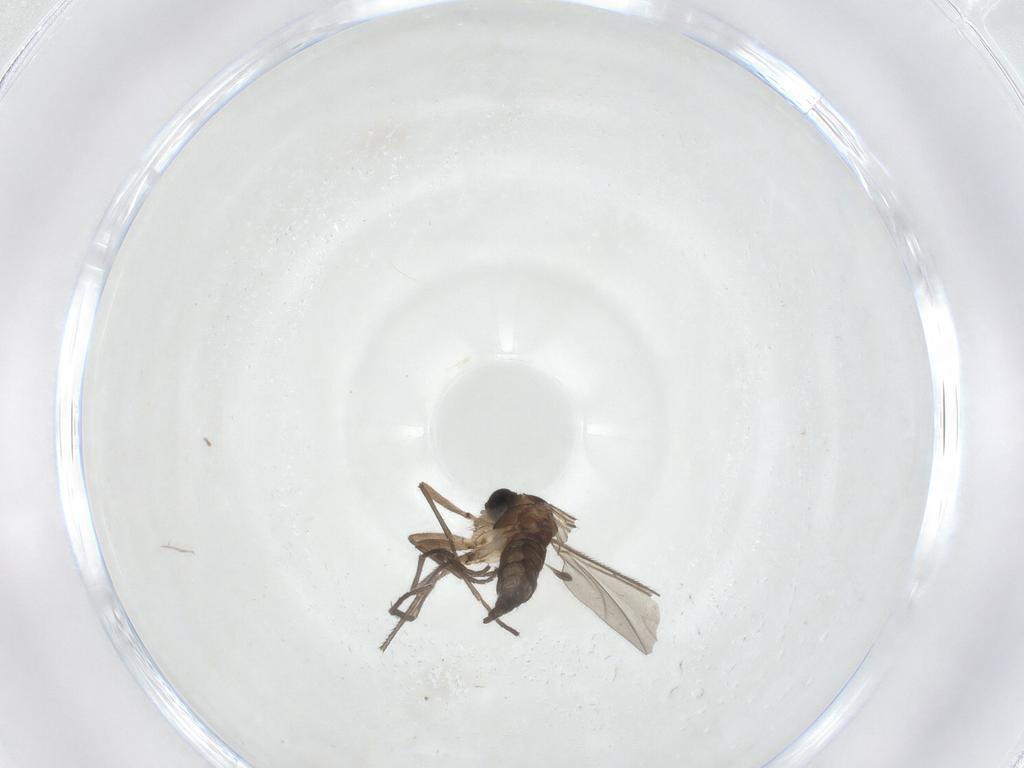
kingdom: Animalia
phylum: Arthropoda
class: Insecta
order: Diptera
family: Sciaridae
